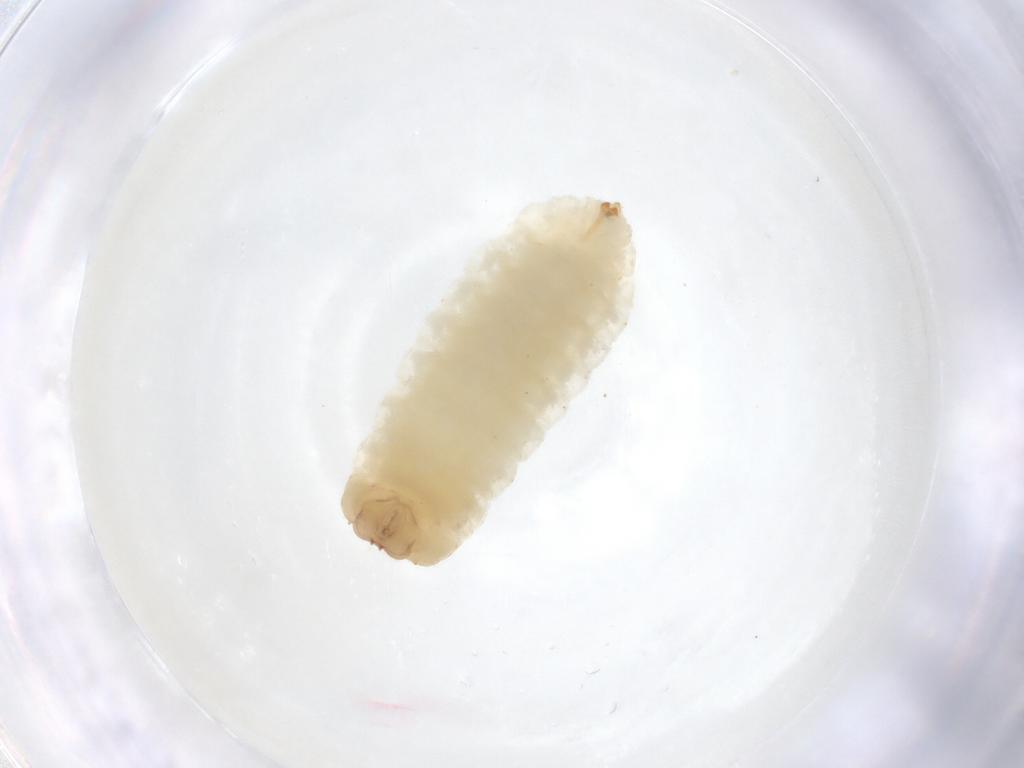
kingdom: Animalia
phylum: Arthropoda
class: Insecta
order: Blattodea
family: Blattidae
